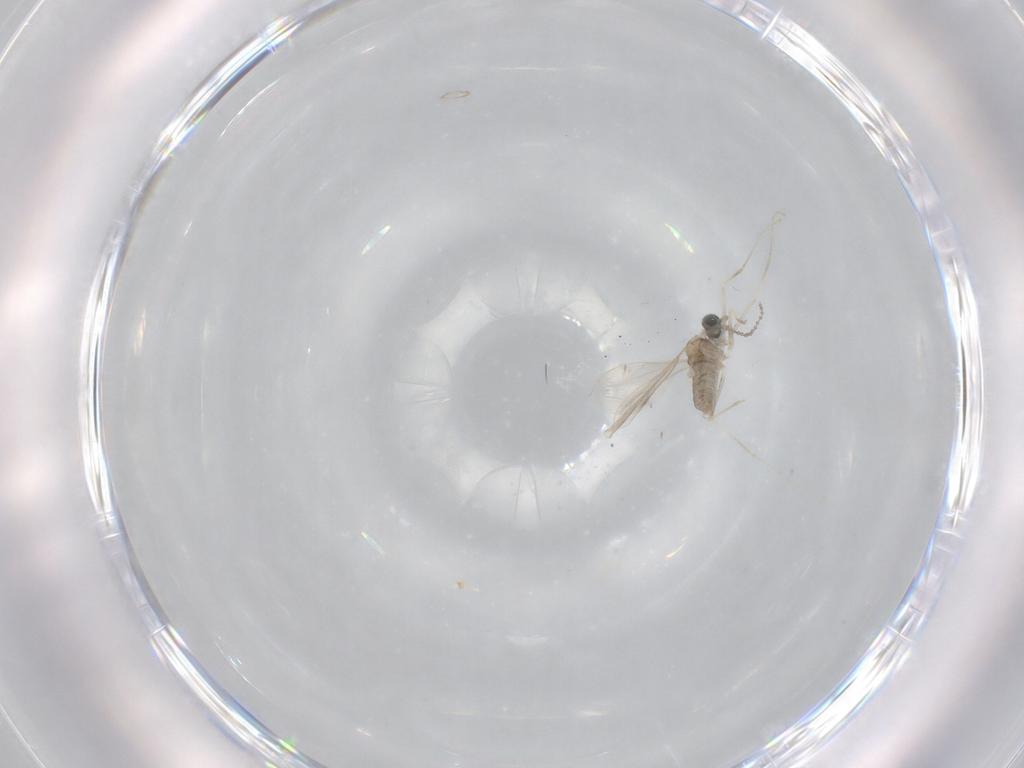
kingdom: Animalia
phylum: Arthropoda
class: Insecta
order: Diptera
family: Cecidomyiidae
